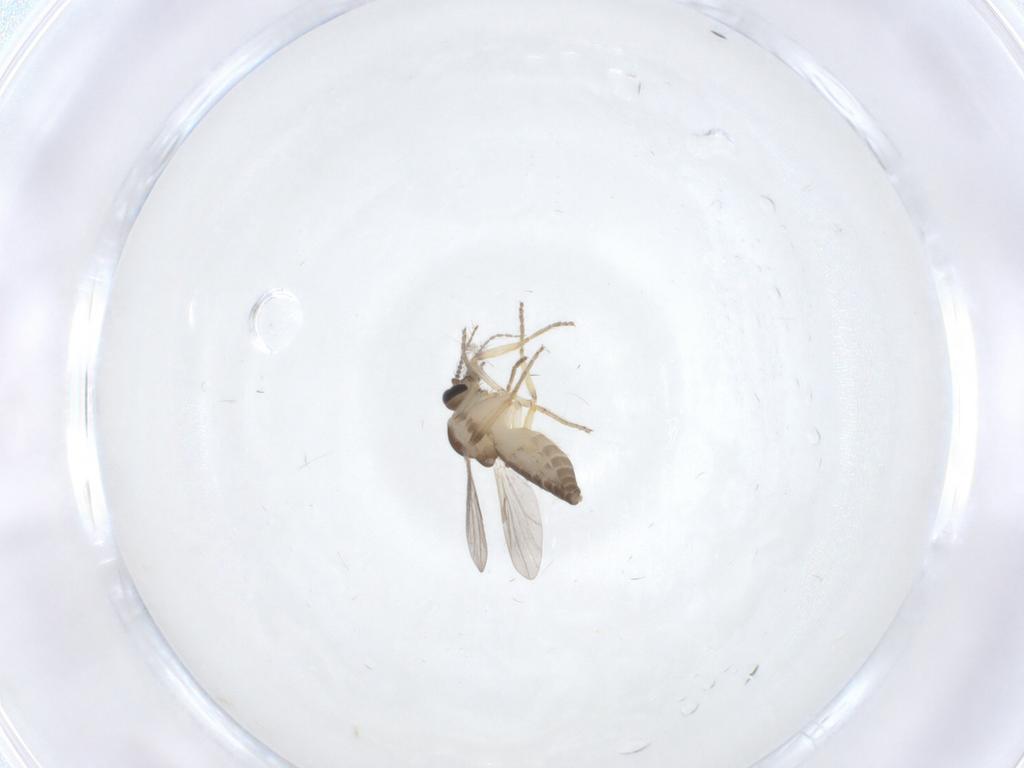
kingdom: Animalia
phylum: Arthropoda
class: Insecta
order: Diptera
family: Ceratopogonidae
